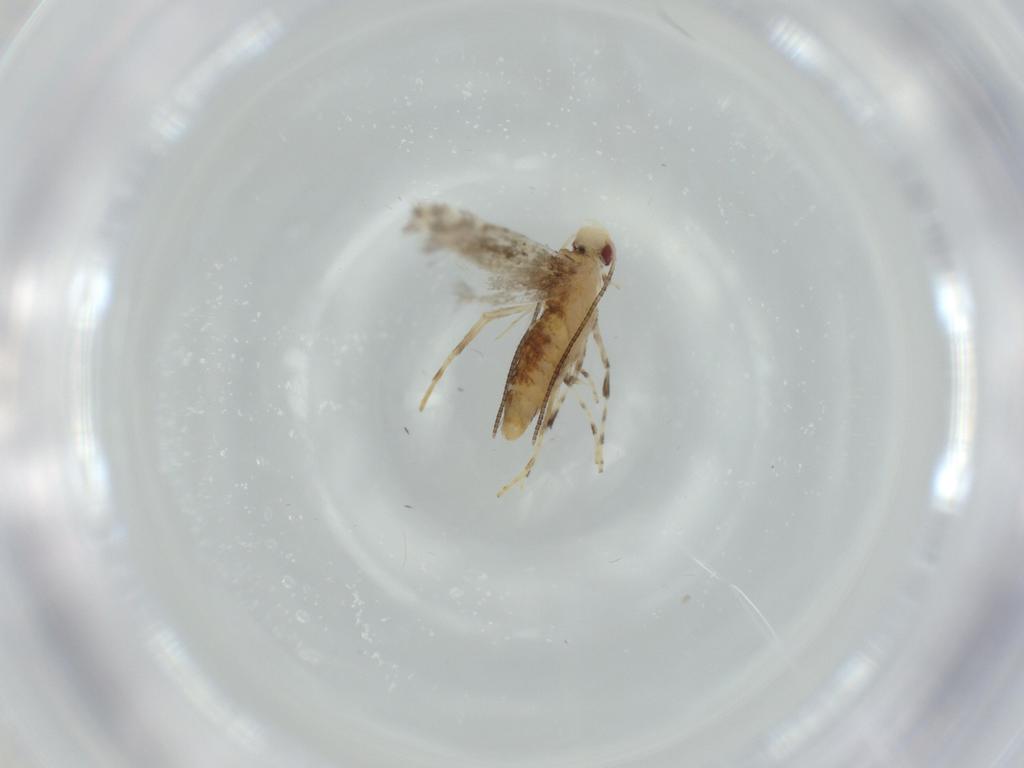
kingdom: Animalia
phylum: Arthropoda
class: Insecta
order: Lepidoptera
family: Gracillariidae
